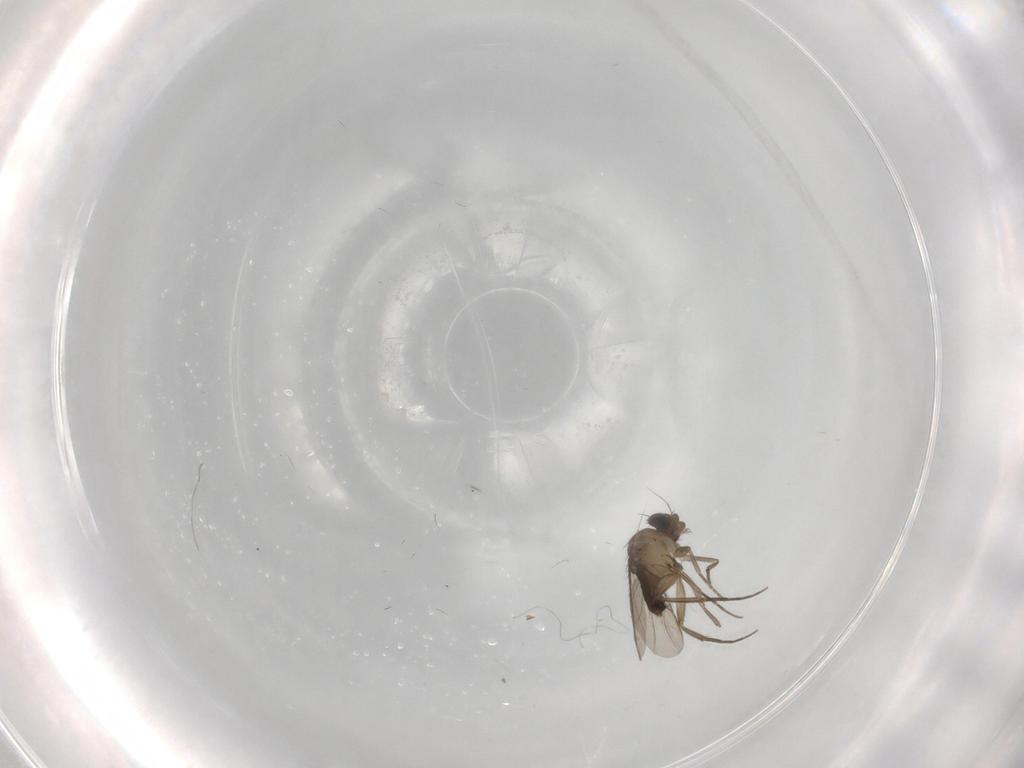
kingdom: Animalia
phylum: Arthropoda
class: Insecta
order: Diptera
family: Phoridae
